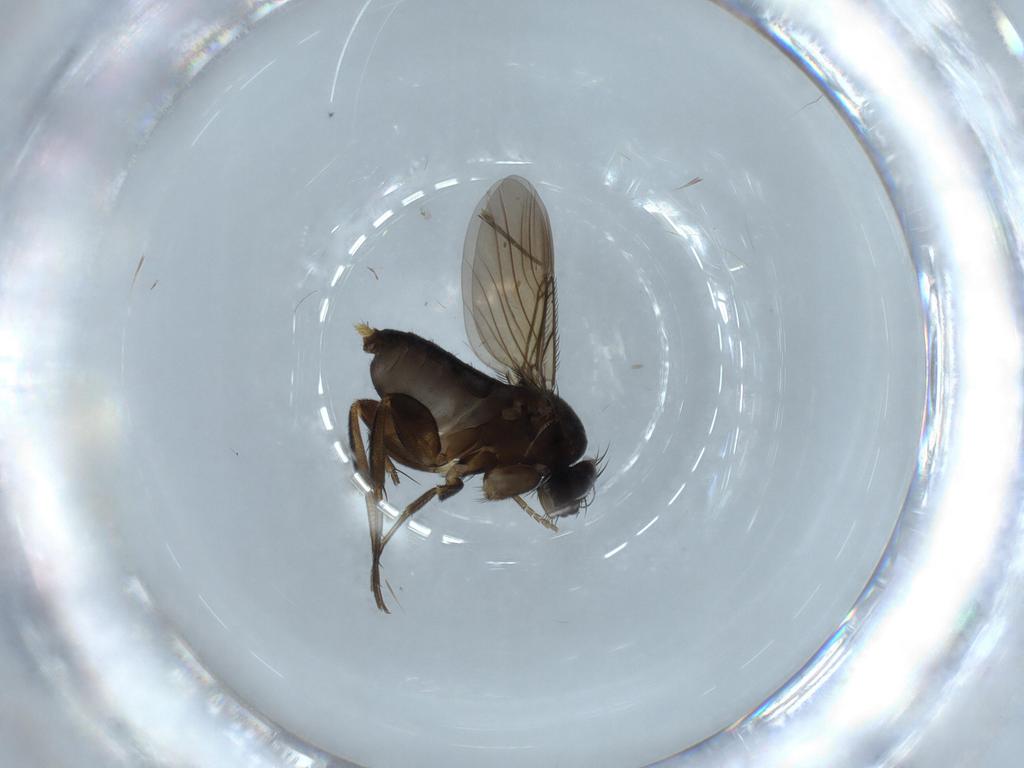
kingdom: Animalia
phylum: Arthropoda
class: Insecta
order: Diptera
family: Phoridae
